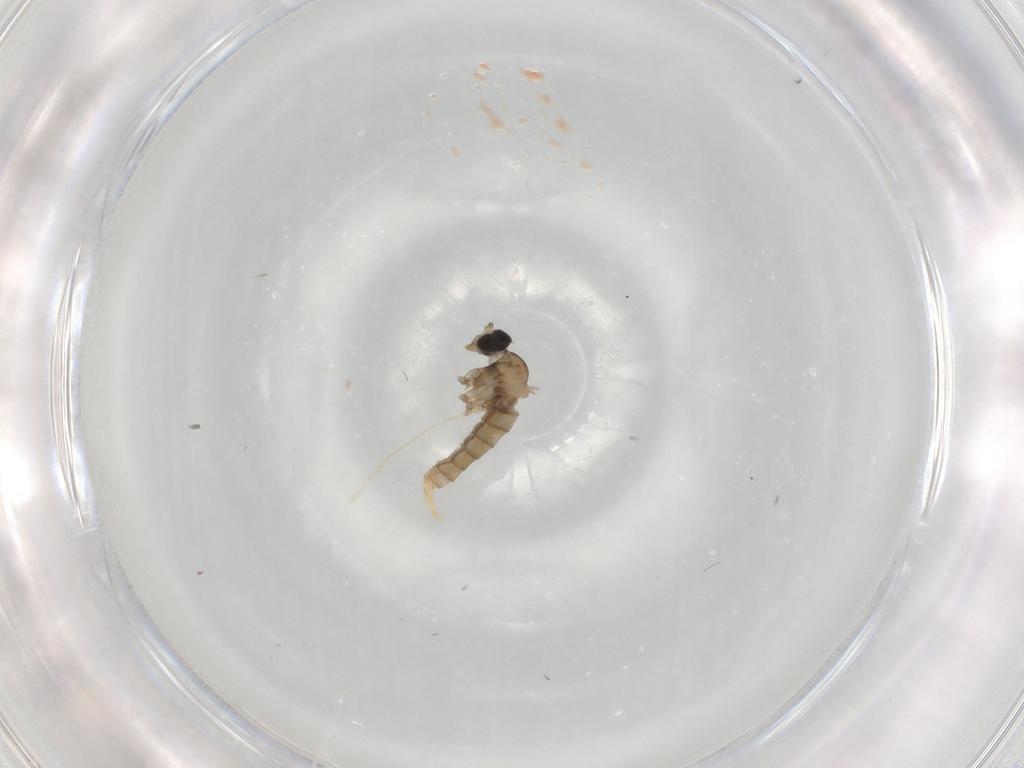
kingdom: Animalia
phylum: Arthropoda
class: Insecta
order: Diptera
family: Cecidomyiidae
